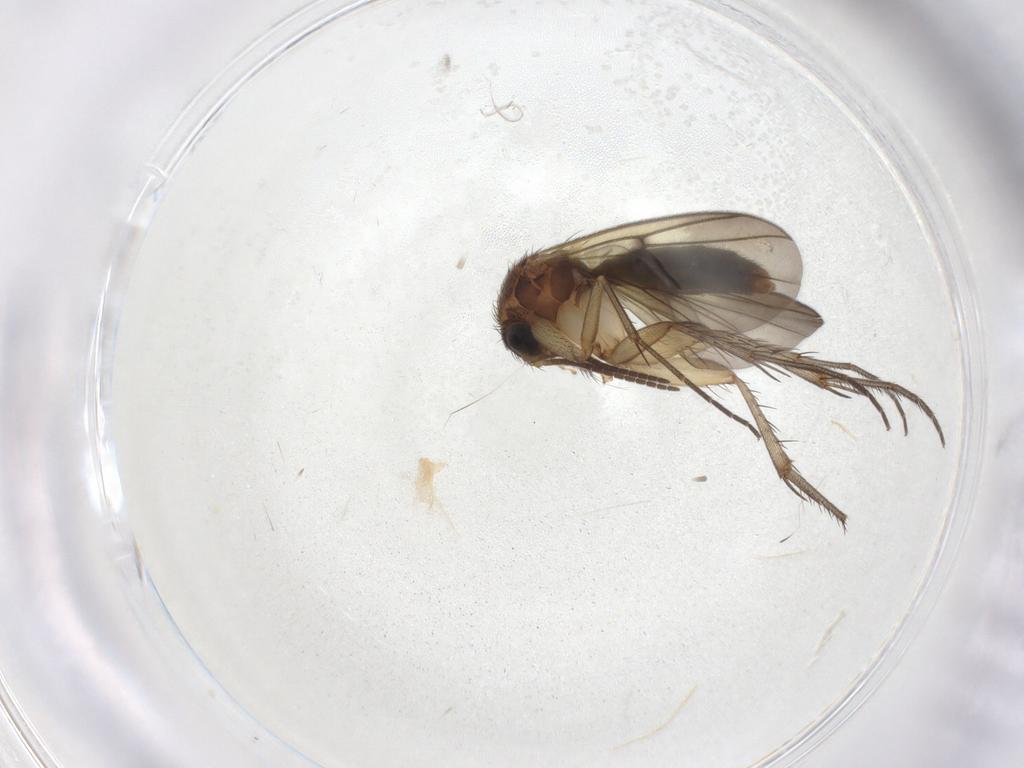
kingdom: Animalia
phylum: Arthropoda
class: Insecta
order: Diptera
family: Mycetophilidae
